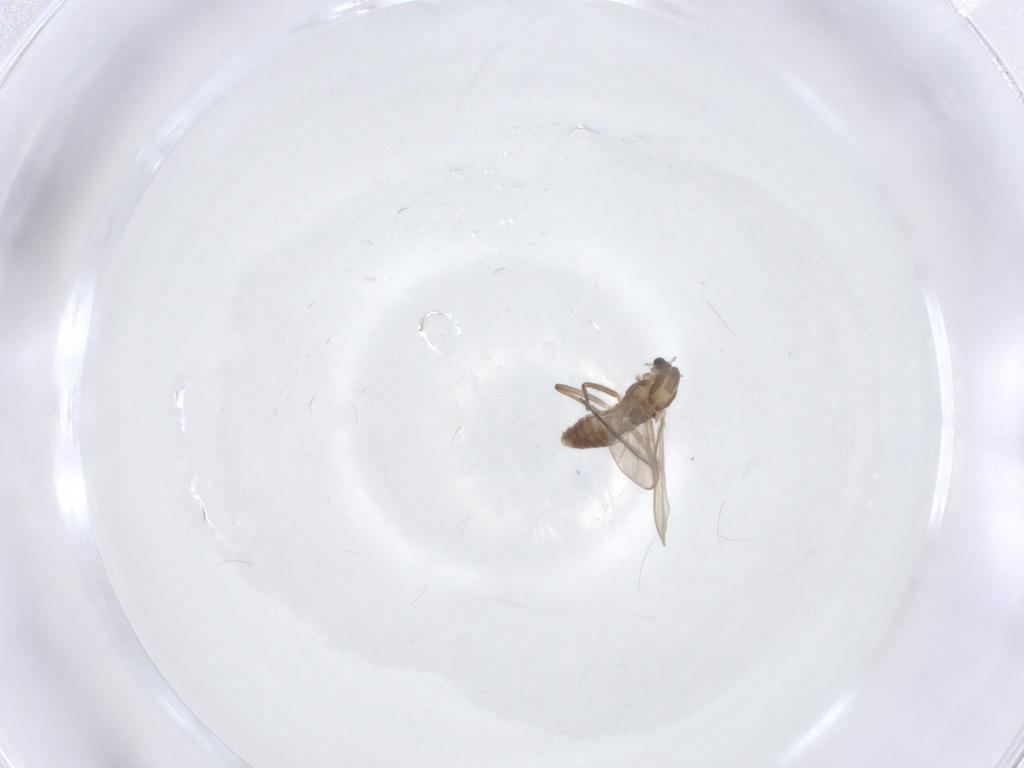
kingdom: Animalia
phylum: Arthropoda
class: Insecta
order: Diptera
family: Chironomidae
